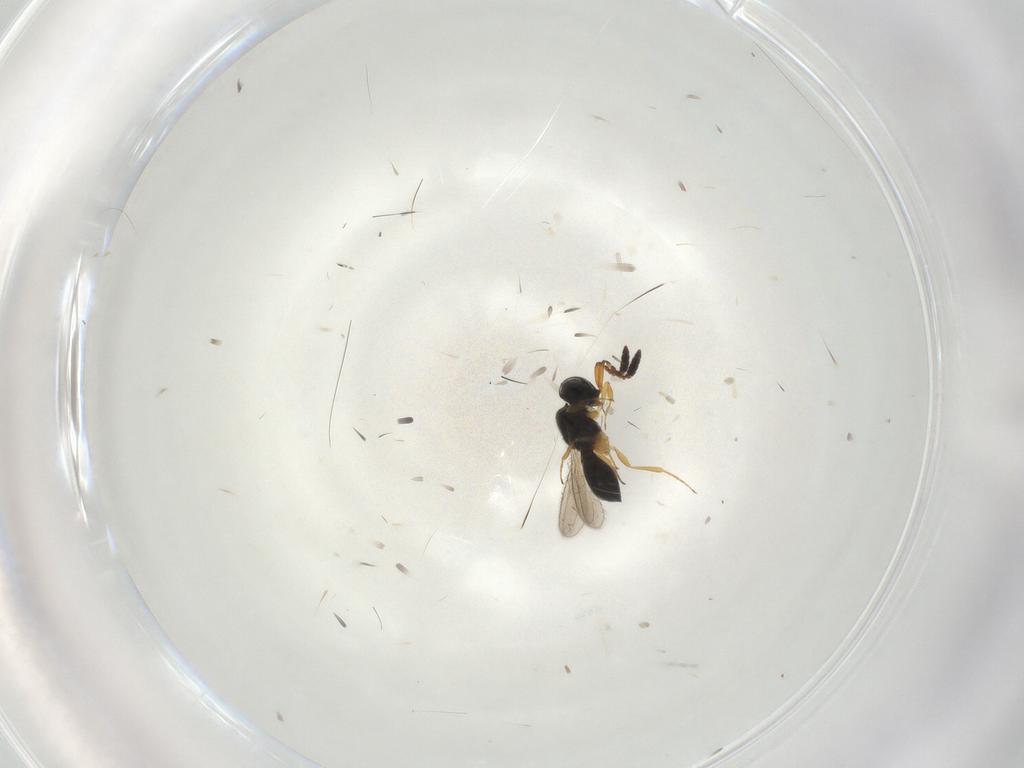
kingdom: Animalia
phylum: Arthropoda
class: Insecta
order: Hymenoptera
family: Scelionidae
